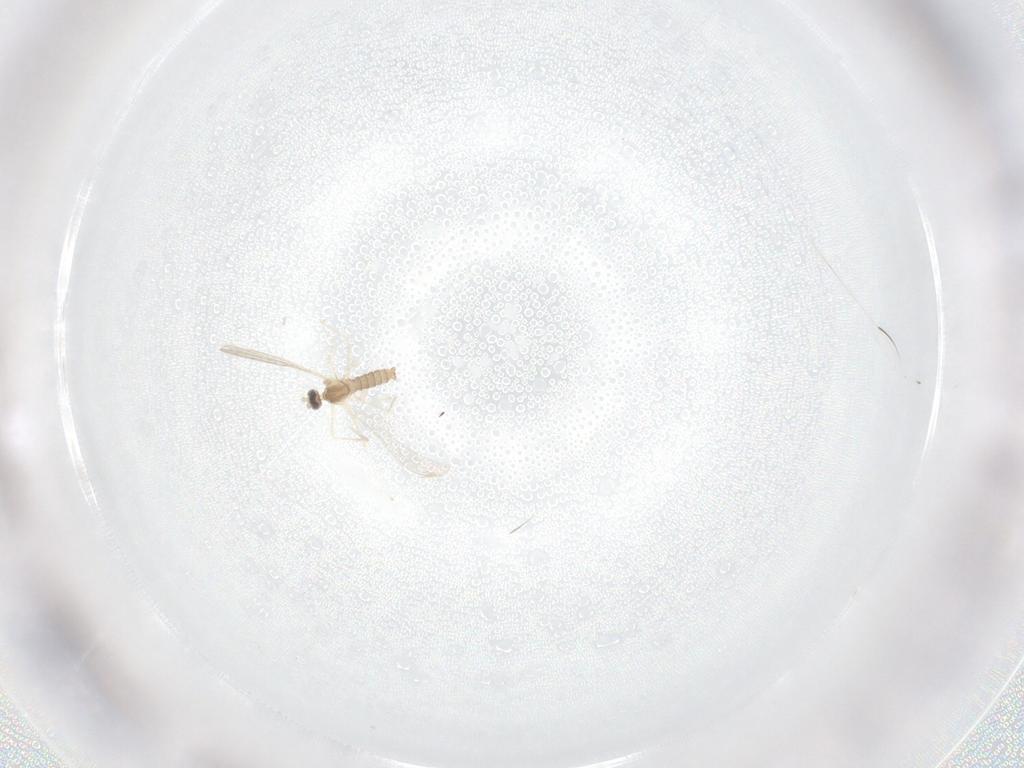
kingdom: Animalia
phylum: Arthropoda
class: Insecta
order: Diptera
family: Cecidomyiidae
